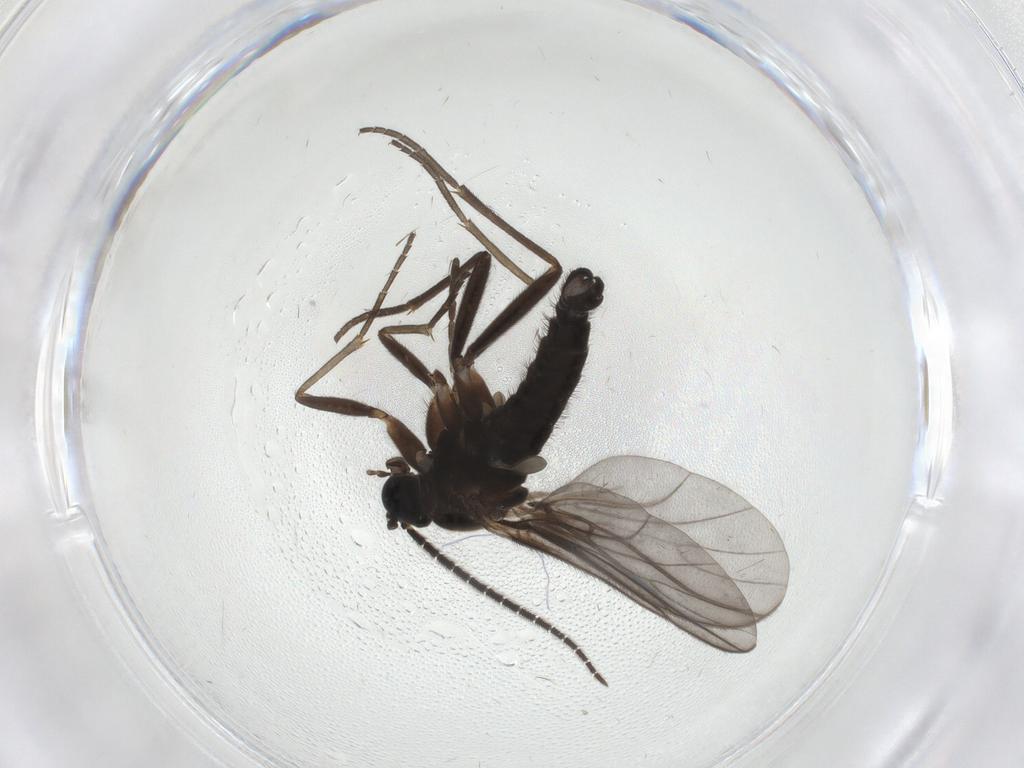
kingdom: Animalia
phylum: Arthropoda
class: Insecta
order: Diptera
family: Sciaridae
